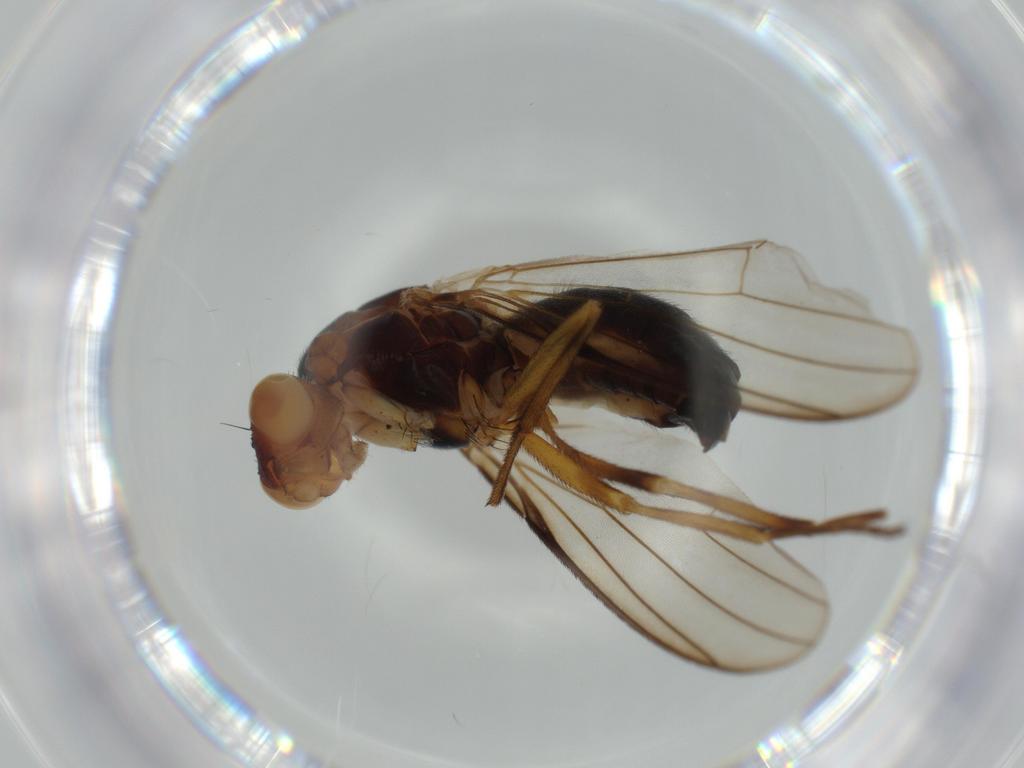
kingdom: Animalia
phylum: Arthropoda
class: Insecta
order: Diptera
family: Piophilidae
